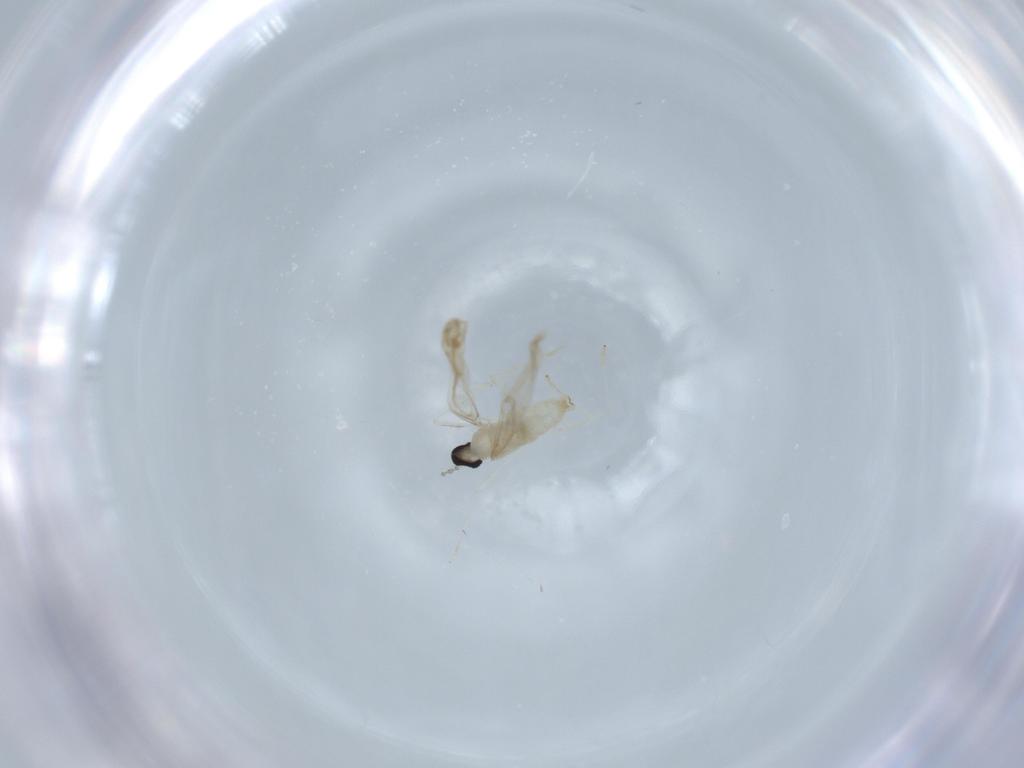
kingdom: Animalia
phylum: Arthropoda
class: Insecta
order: Diptera
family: Cecidomyiidae
